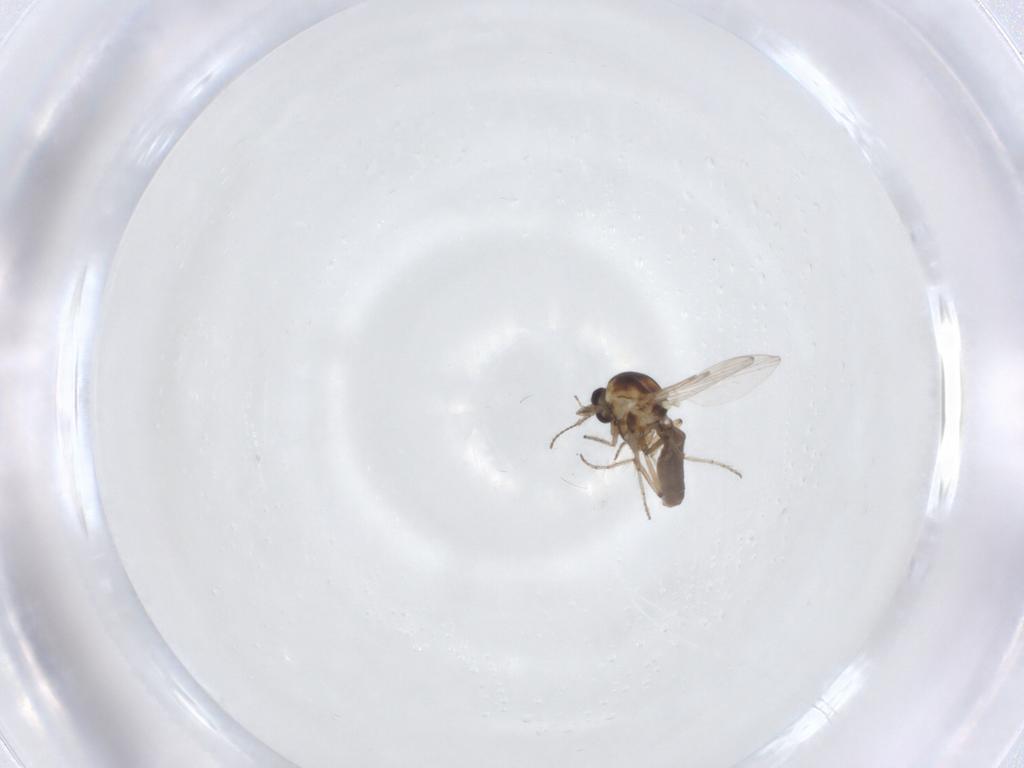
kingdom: Animalia
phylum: Arthropoda
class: Insecta
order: Diptera
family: Ceratopogonidae
